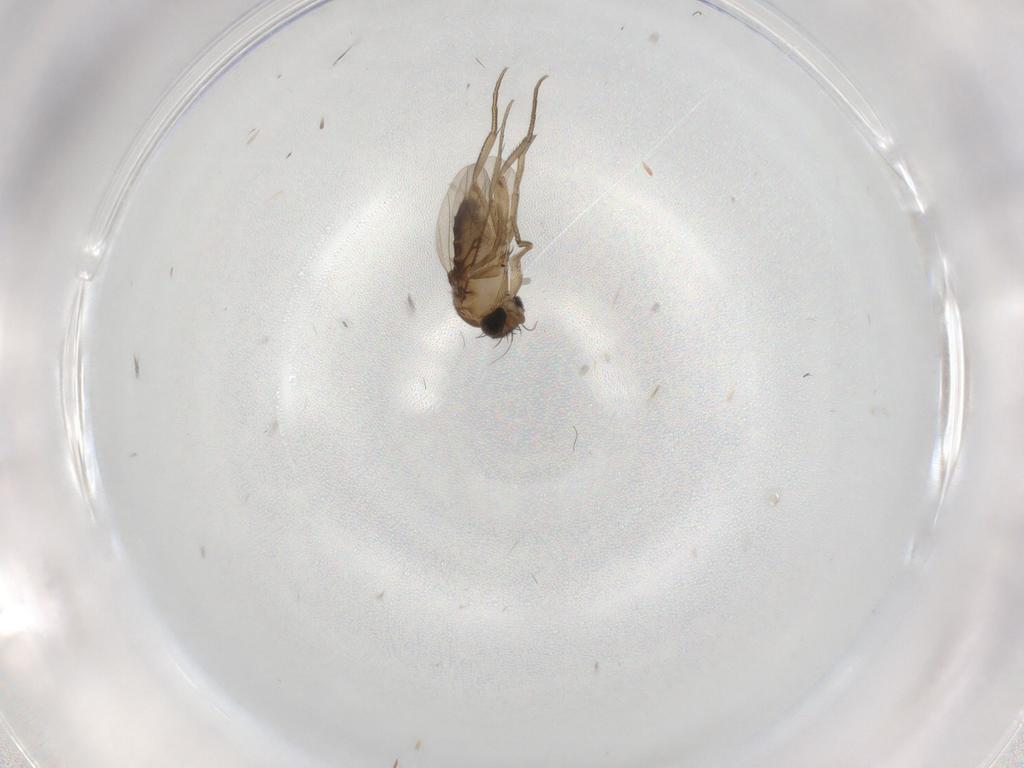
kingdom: Animalia
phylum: Arthropoda
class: Insecta
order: Diptera
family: Phoridae
